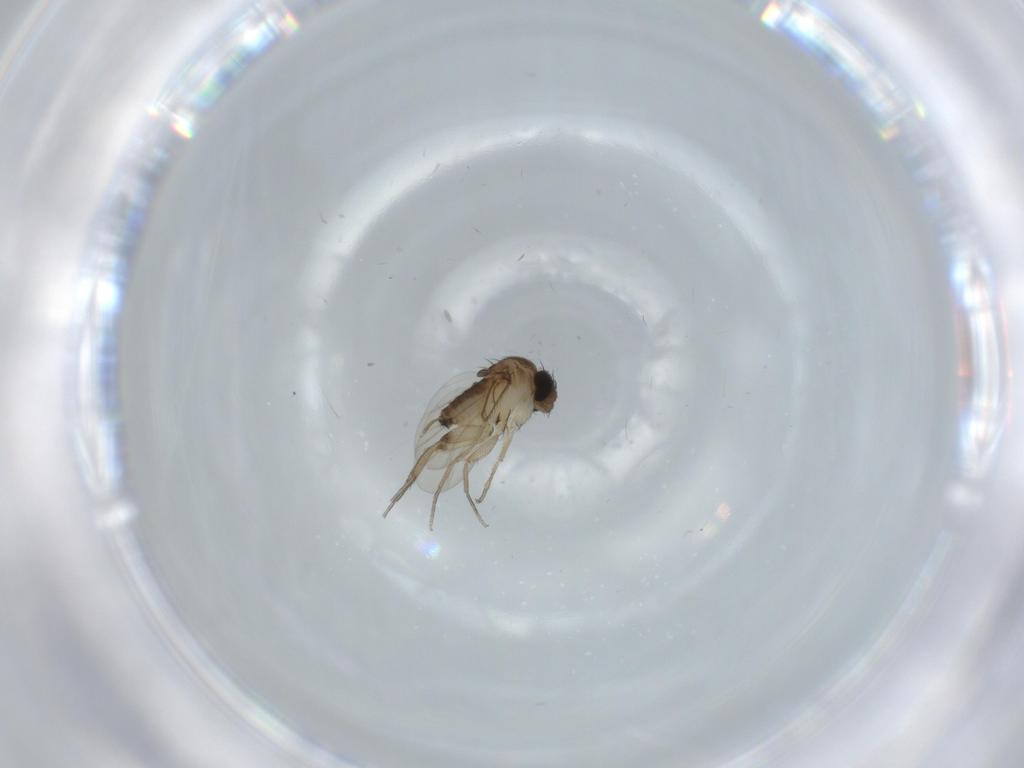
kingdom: Animalia
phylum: Arthropoda
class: Insecta
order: Diptera
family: Phoridae
